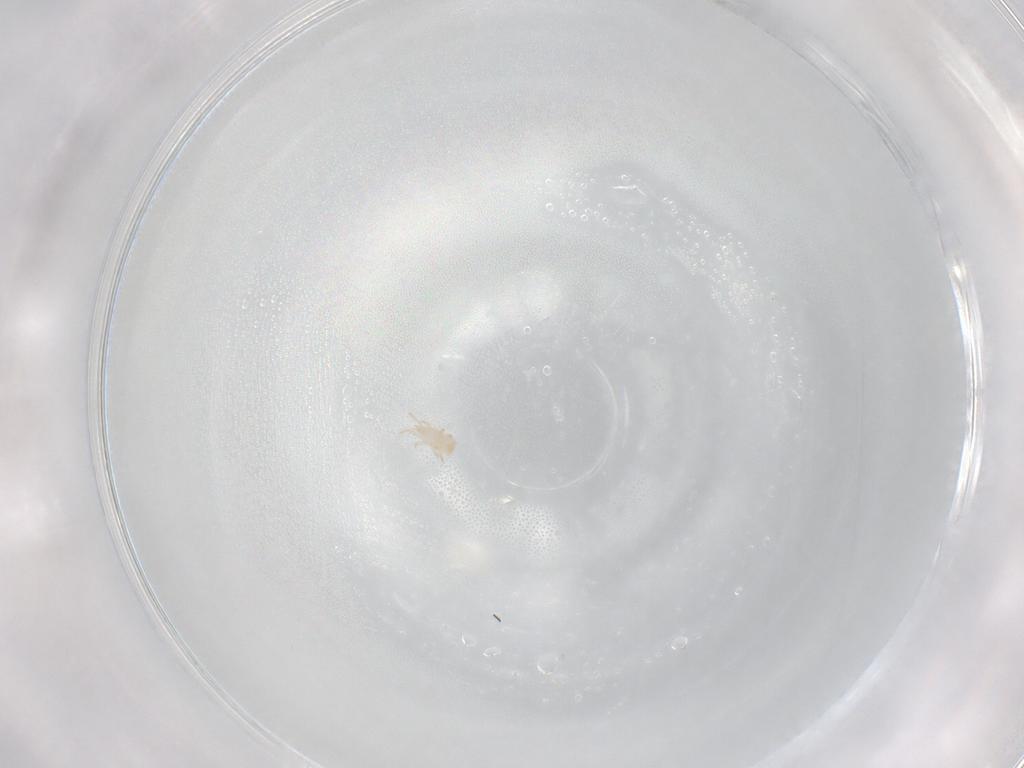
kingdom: Animalia
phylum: Arthropoda
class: Arachnida
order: Mesostigmata
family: Digamasellidae
